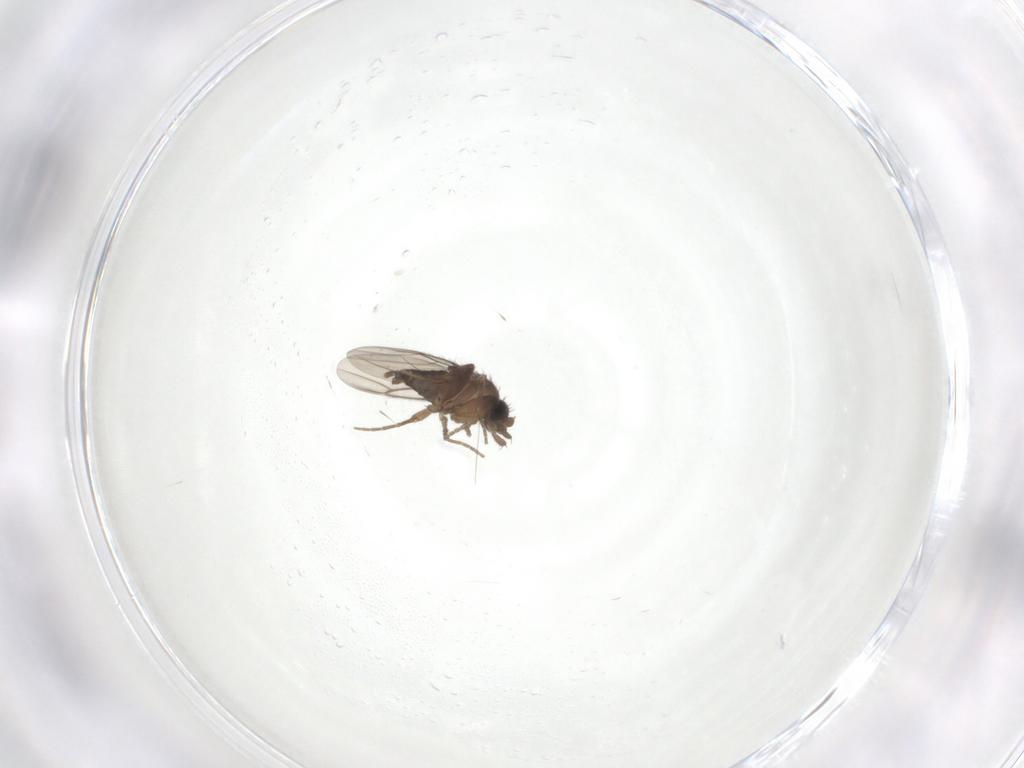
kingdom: Animalia
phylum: Arthropoda
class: Insecta
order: Diptera
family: Phoridae
